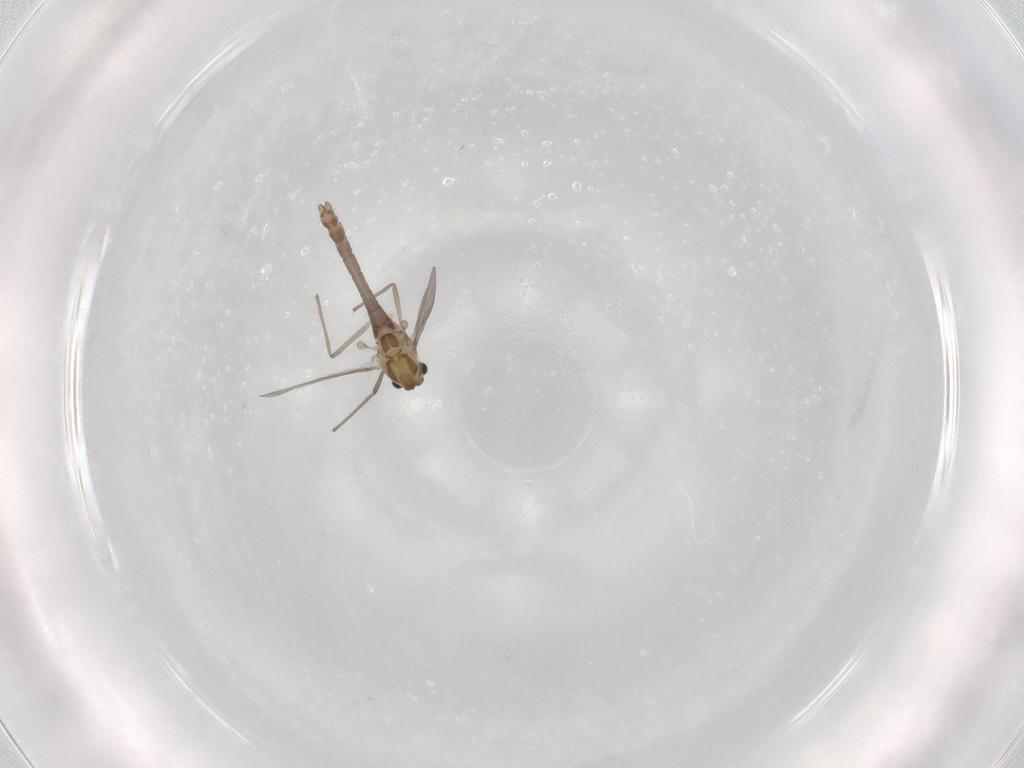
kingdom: Animalia
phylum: Arthropoda
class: Insecta
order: Diptera
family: Chironomidae
